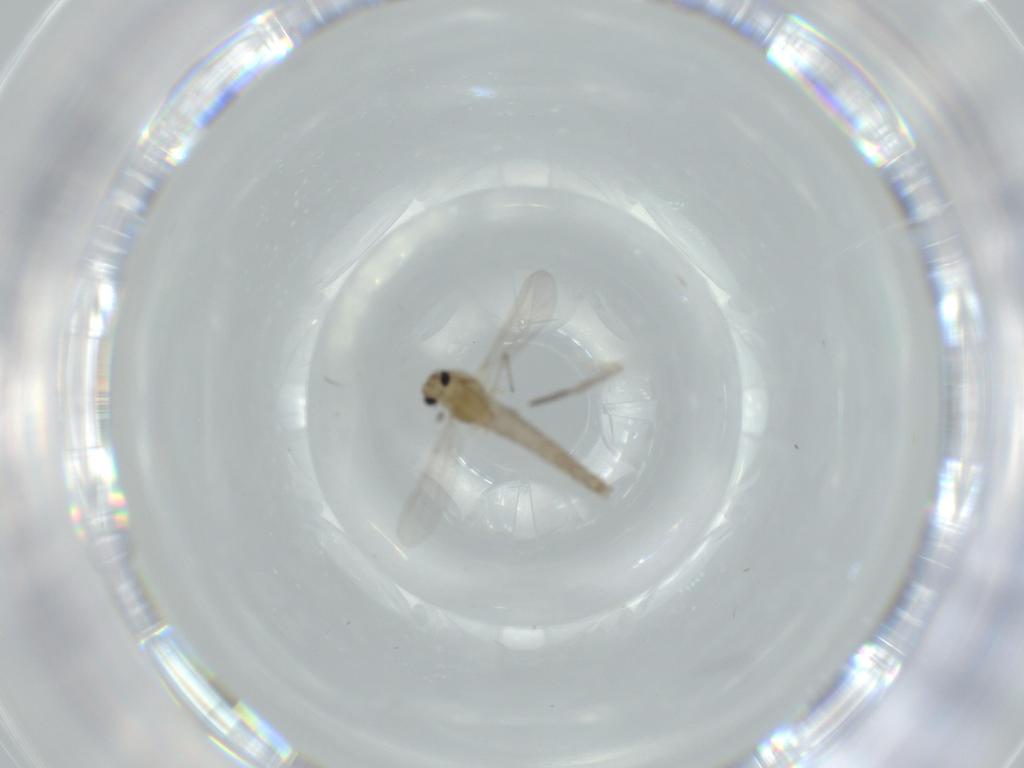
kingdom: Animalia
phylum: Arthropoda
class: Insecta
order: Diptera
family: Chironomidae
